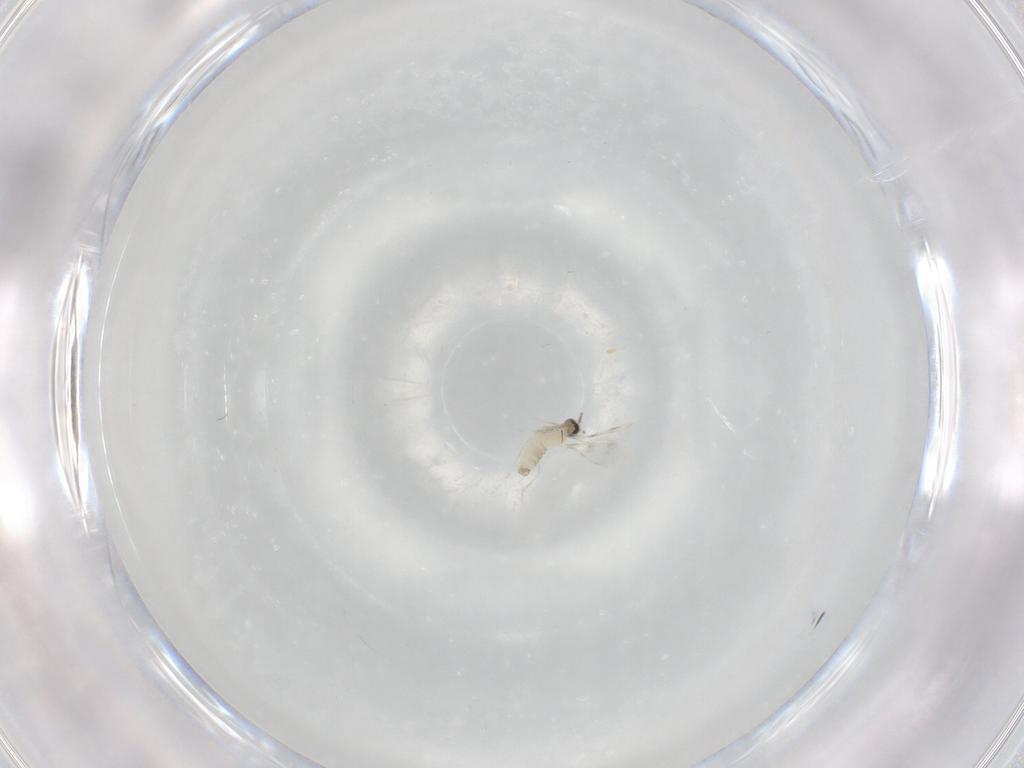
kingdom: Animalia
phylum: Arthropoda
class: Insecta
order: Diptera
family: Cecidomyiidae
